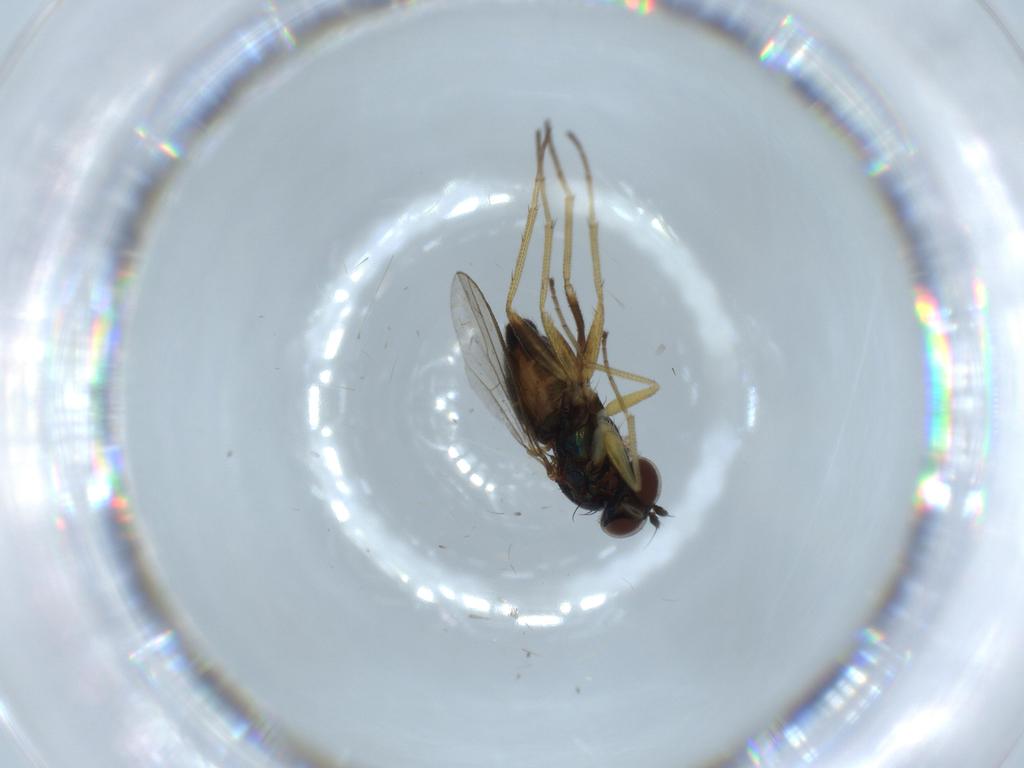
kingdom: Animalia
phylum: Arthropoda
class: Insecta
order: Diptera
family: Dolichopodidae
